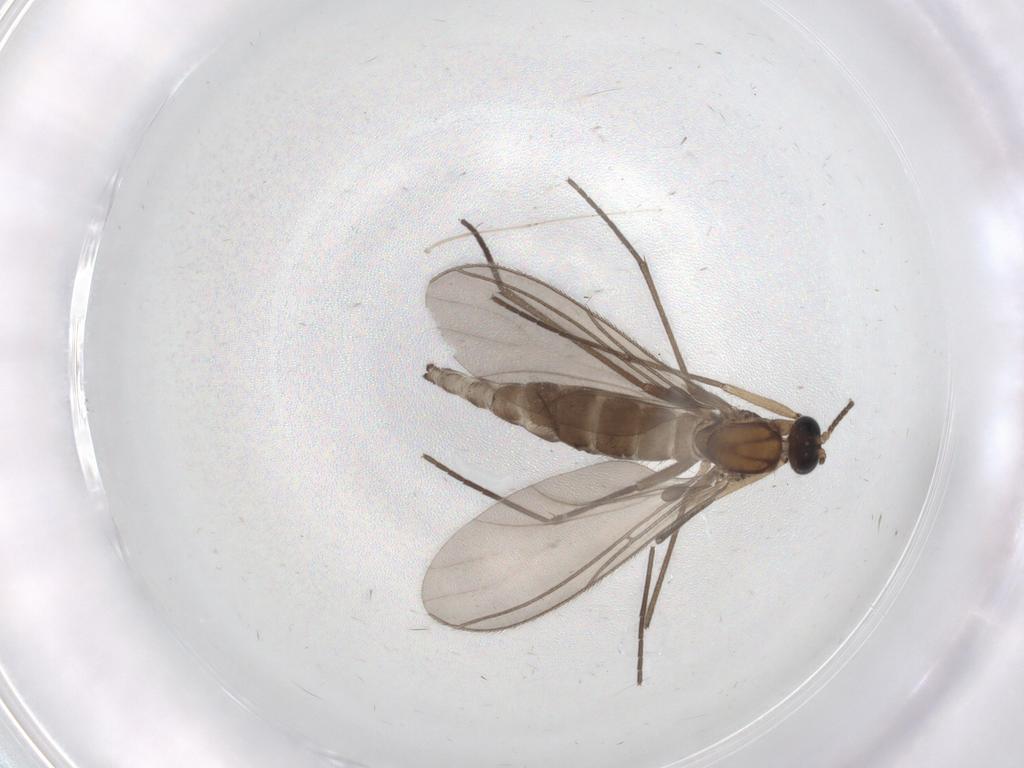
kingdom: Animalia
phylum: Arthropoda
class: Insecta
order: Diptera
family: Sciaridae
